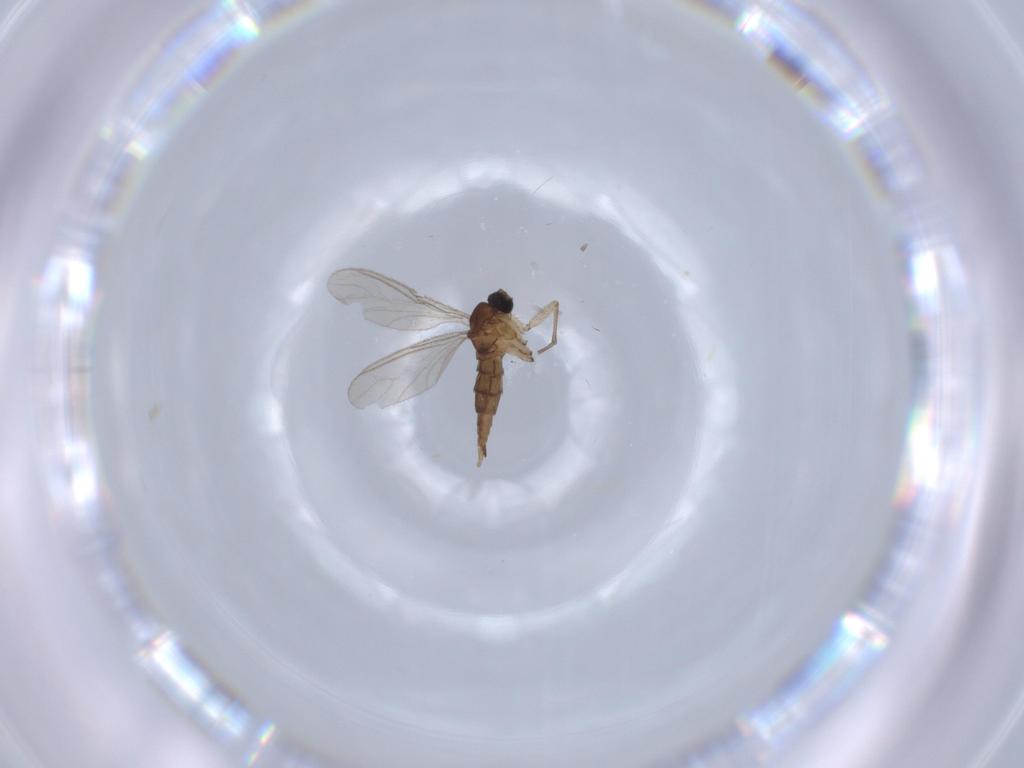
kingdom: Animalia
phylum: Arthropoda
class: Insecta
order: Diptera
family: Sciaridae
